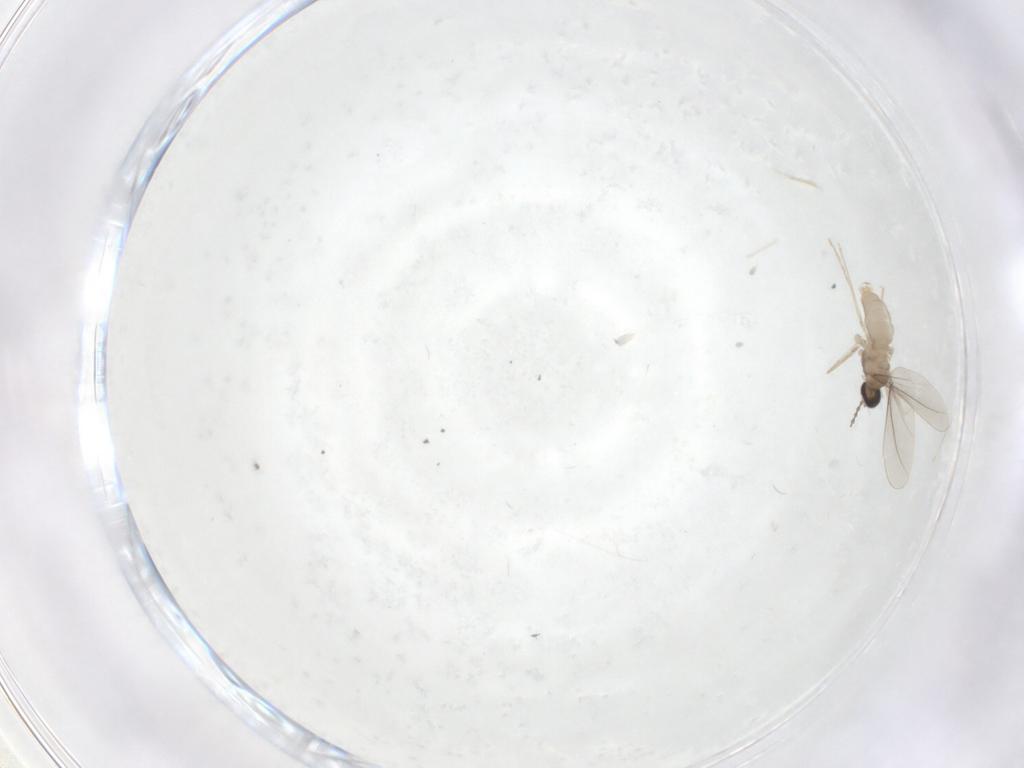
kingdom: Animalia
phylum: Arthropoda
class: Insecta
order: Diptera
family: Cecidomyiidae
